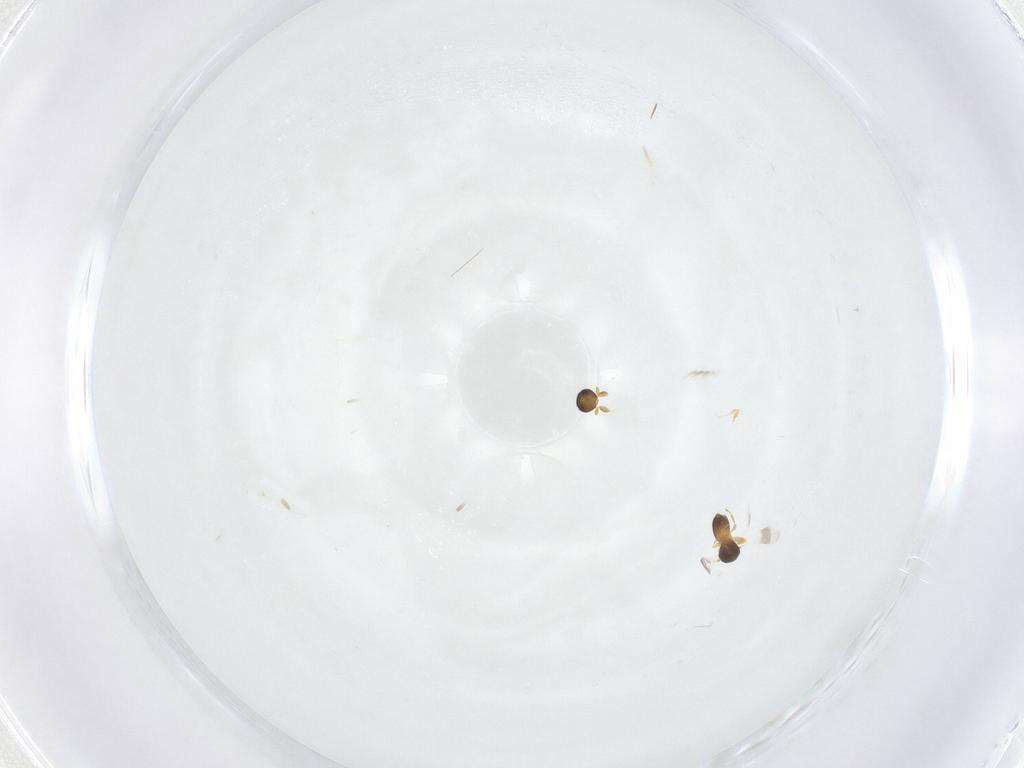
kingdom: Animalia
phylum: Arthropoda
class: Insecta
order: Hymenoptera
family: Platygastridae
